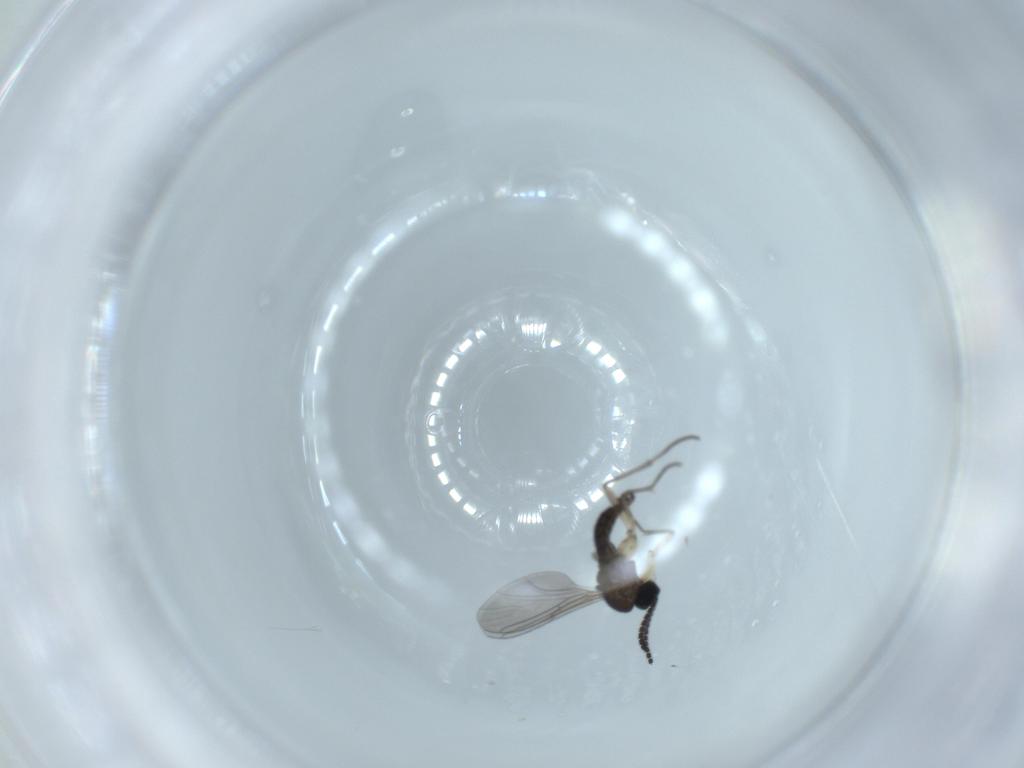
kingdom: Animalia
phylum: Arthropoda
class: Insecta
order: Diptera
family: Sciaridae
